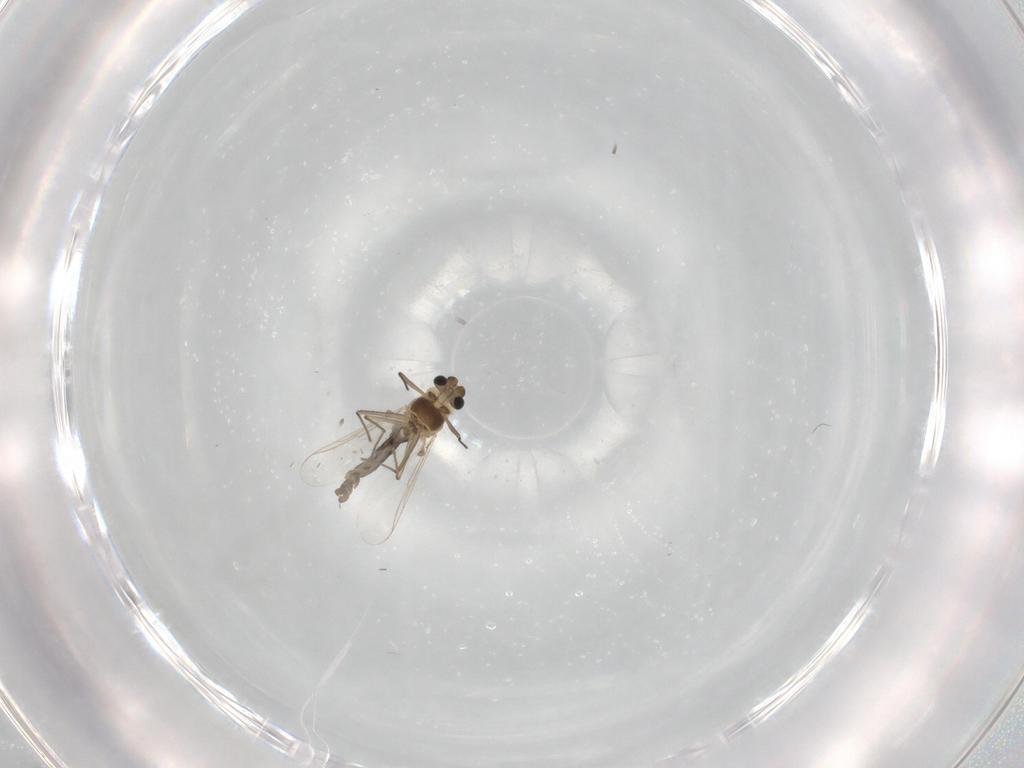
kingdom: Animalia
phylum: Arthropoda
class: Insecta
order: Diptera
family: Chironomidae
